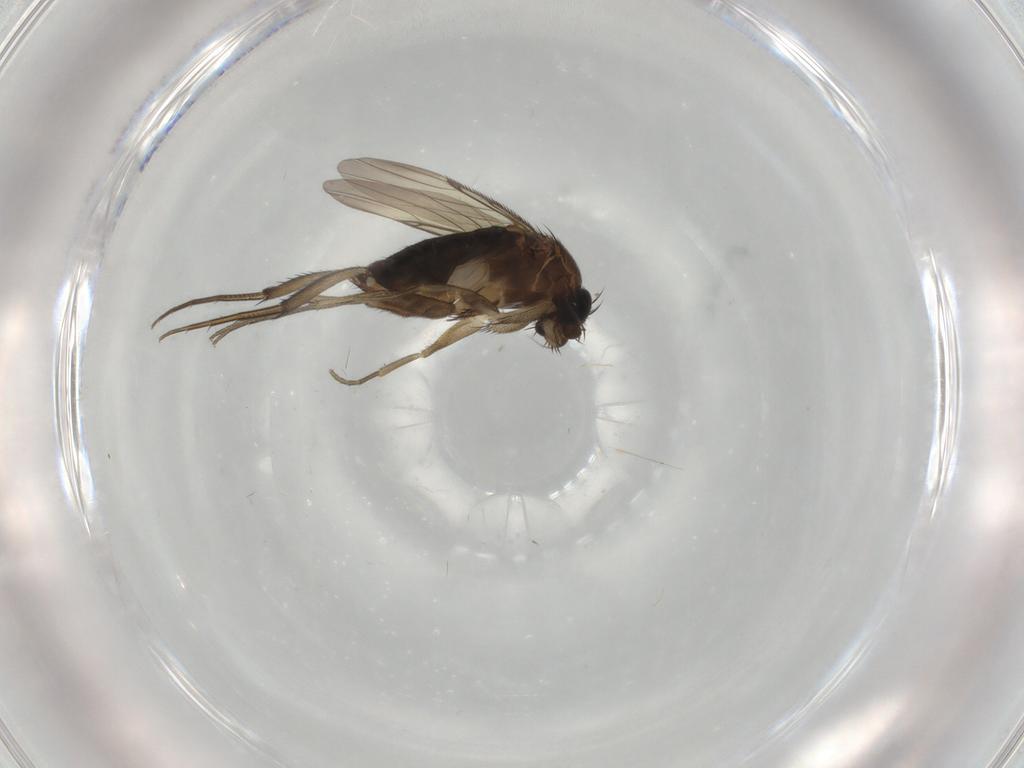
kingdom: Animalia
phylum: Arthropoda
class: Insecta
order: Diptera
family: Phoridae
